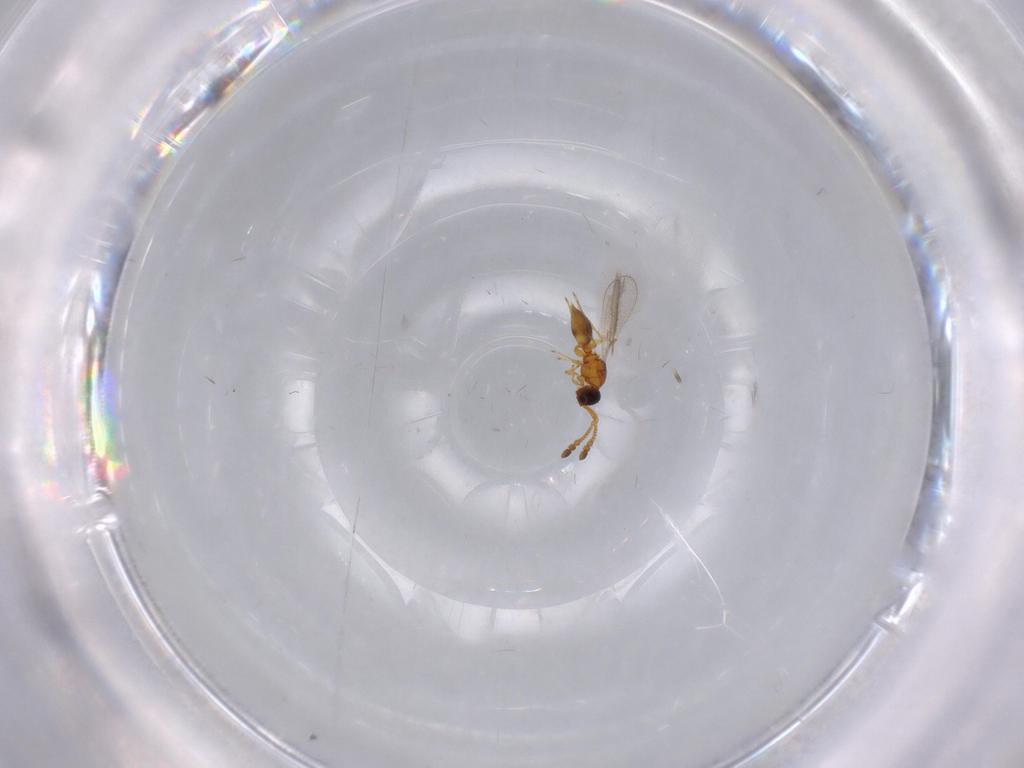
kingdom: Animalia
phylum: Arthropoda
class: Insecta
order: Hymenoptera
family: Diapriidae
